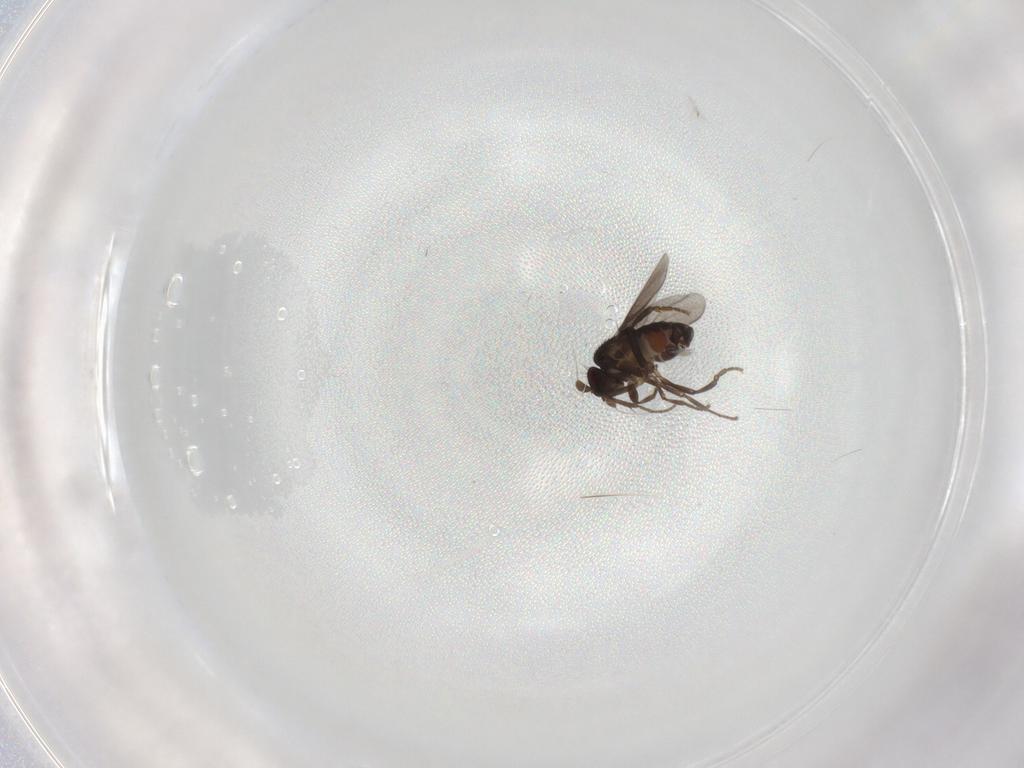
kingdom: Animalia
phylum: Arthropoda
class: Insecta
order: Diptera
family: Sphaeroceridae
